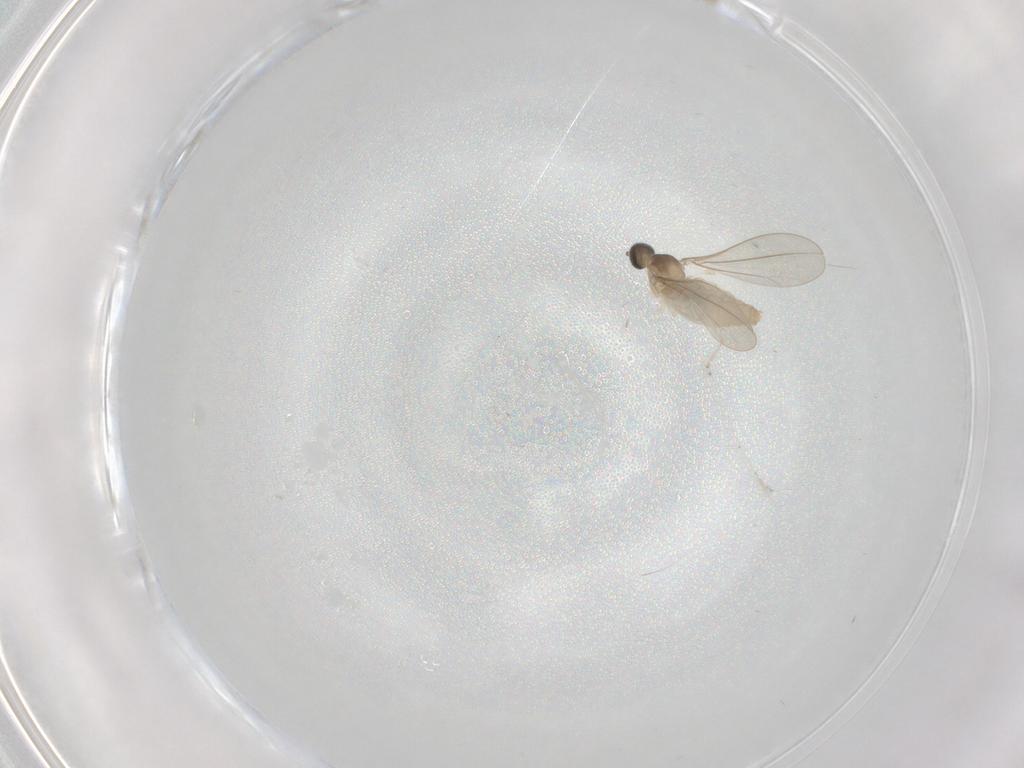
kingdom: Animalia
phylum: Arthropoda
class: Insecta
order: Diptera
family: Cecidomyiidae
